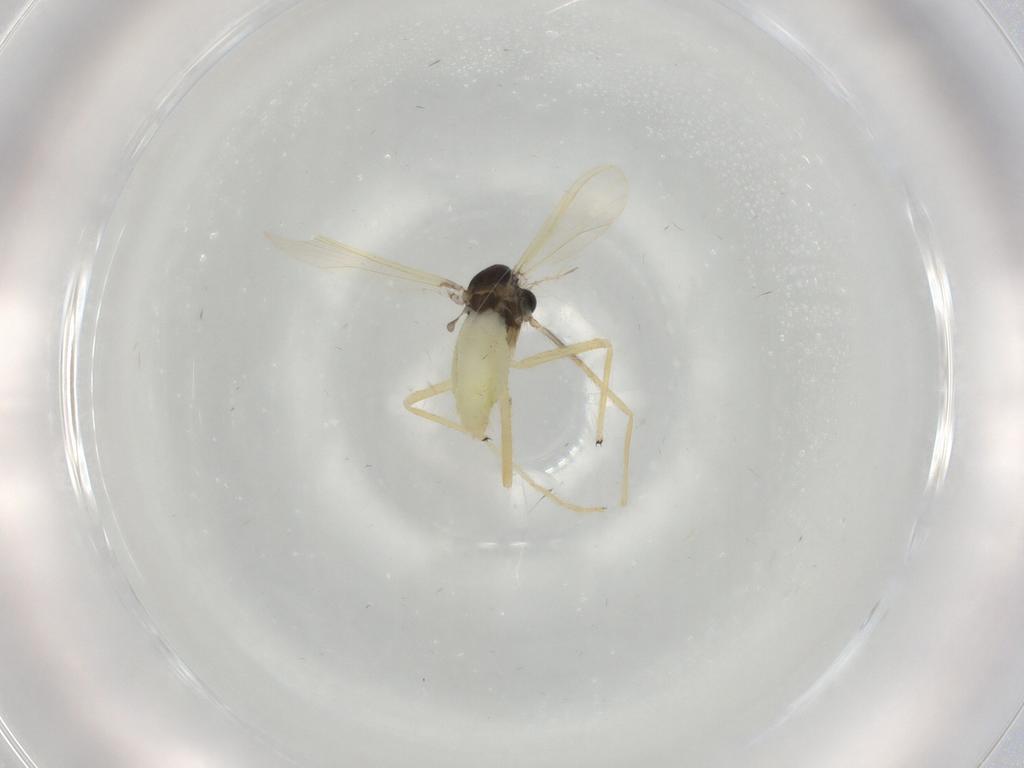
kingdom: Animalia
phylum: Arthropoda
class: Insecta
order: Diptera
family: Chironomidae
